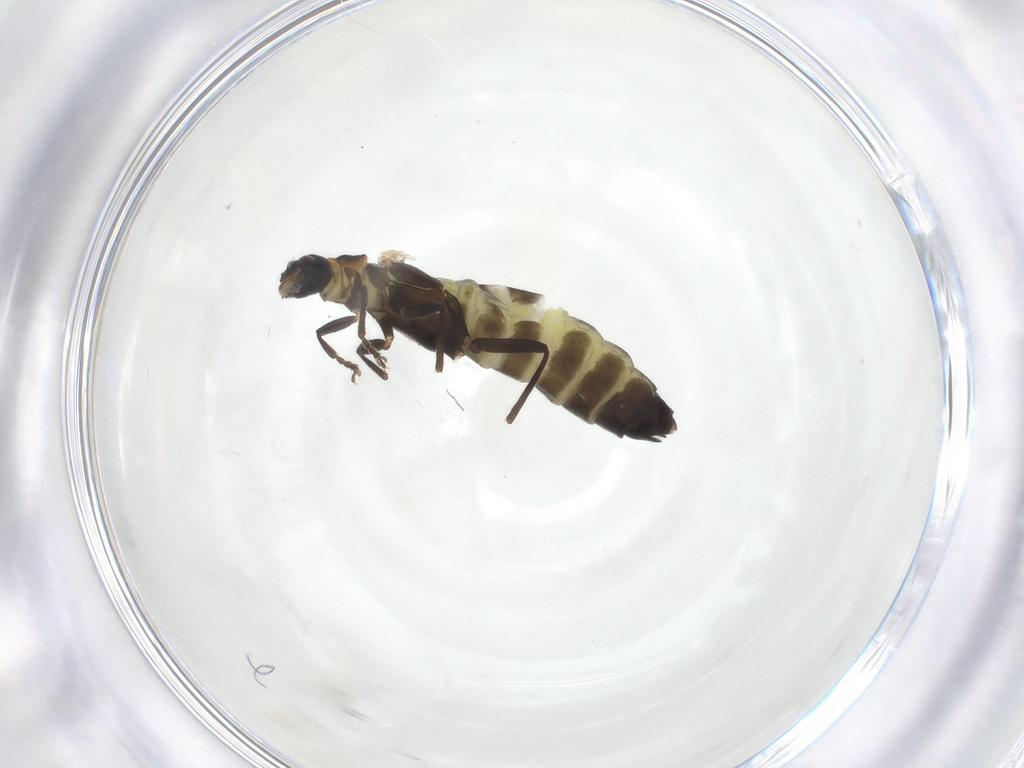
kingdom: Animalia
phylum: Arthropoda
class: Insecta
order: Coleoptera
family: Cantharidae
